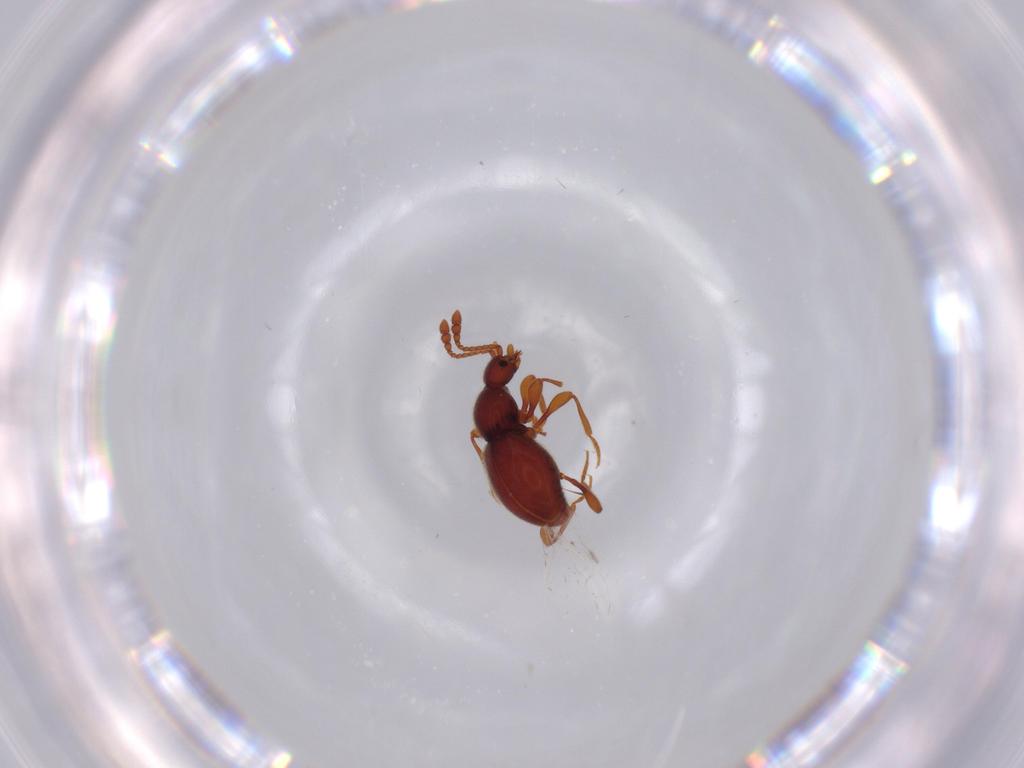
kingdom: Animalia
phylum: Arthropoda
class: Insecta
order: Coleoptera
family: Staphylinidae
